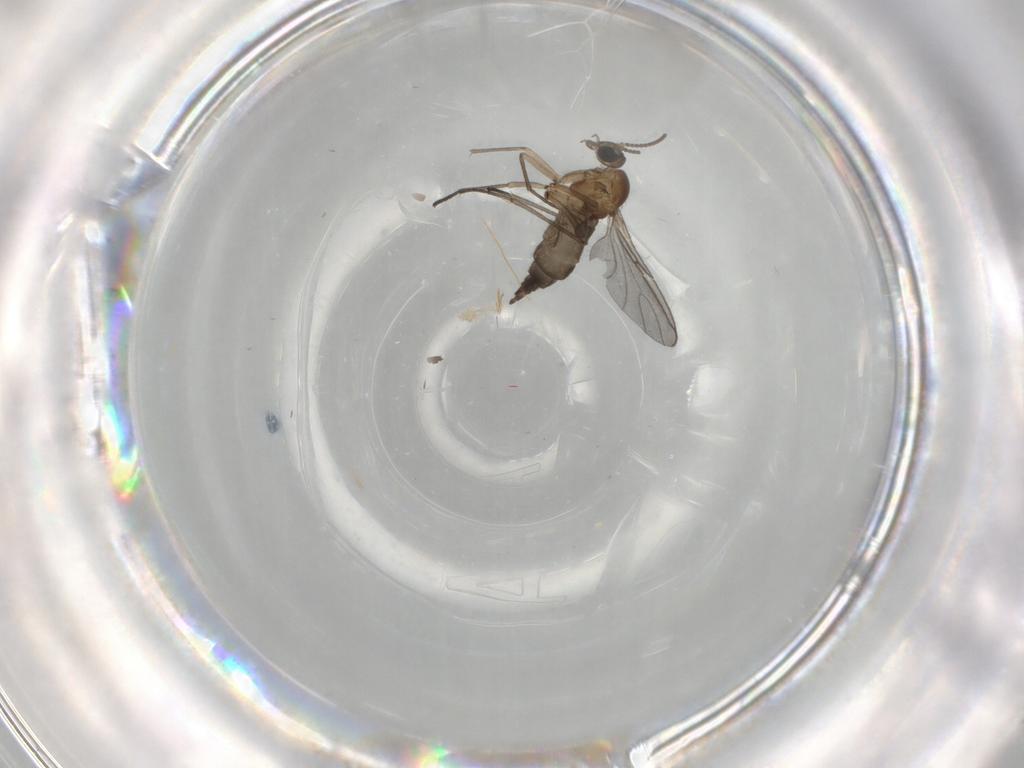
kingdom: Animalia
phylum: Arthropoda
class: Insecta
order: Diptera
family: Sciaridae
